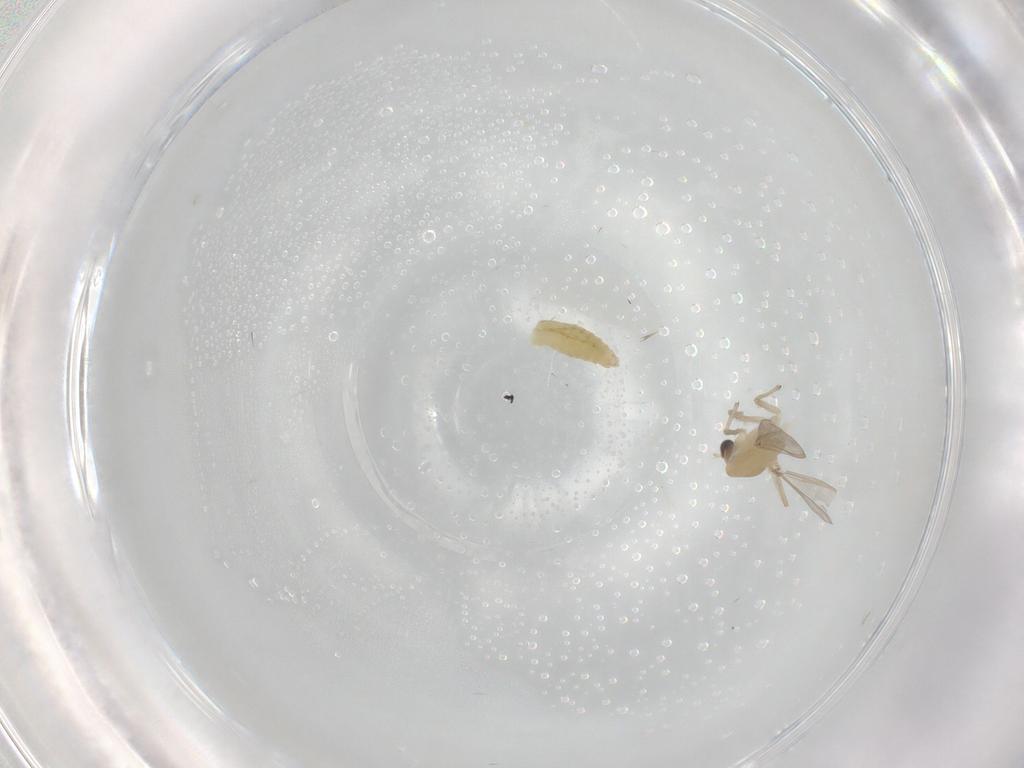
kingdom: Animalia
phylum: Arthropoda
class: Insecta
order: Diptera
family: Chironomidae
